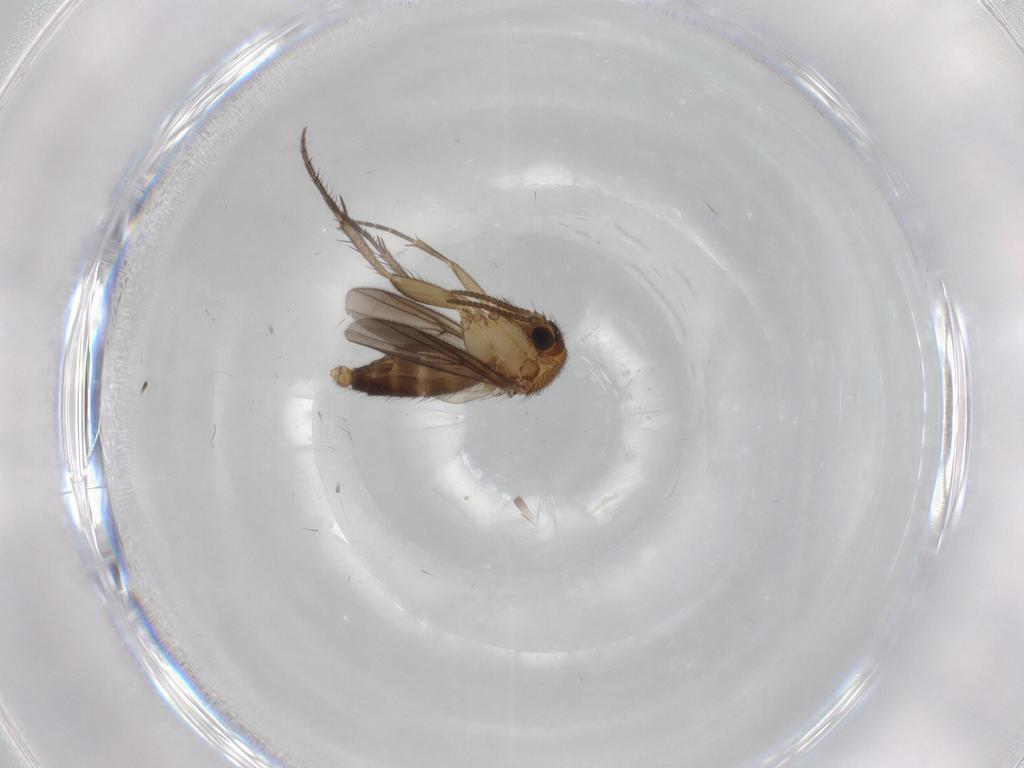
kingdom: Animalia
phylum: Arthropoda
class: Insecta
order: Diptera
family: Mycetophilidae
